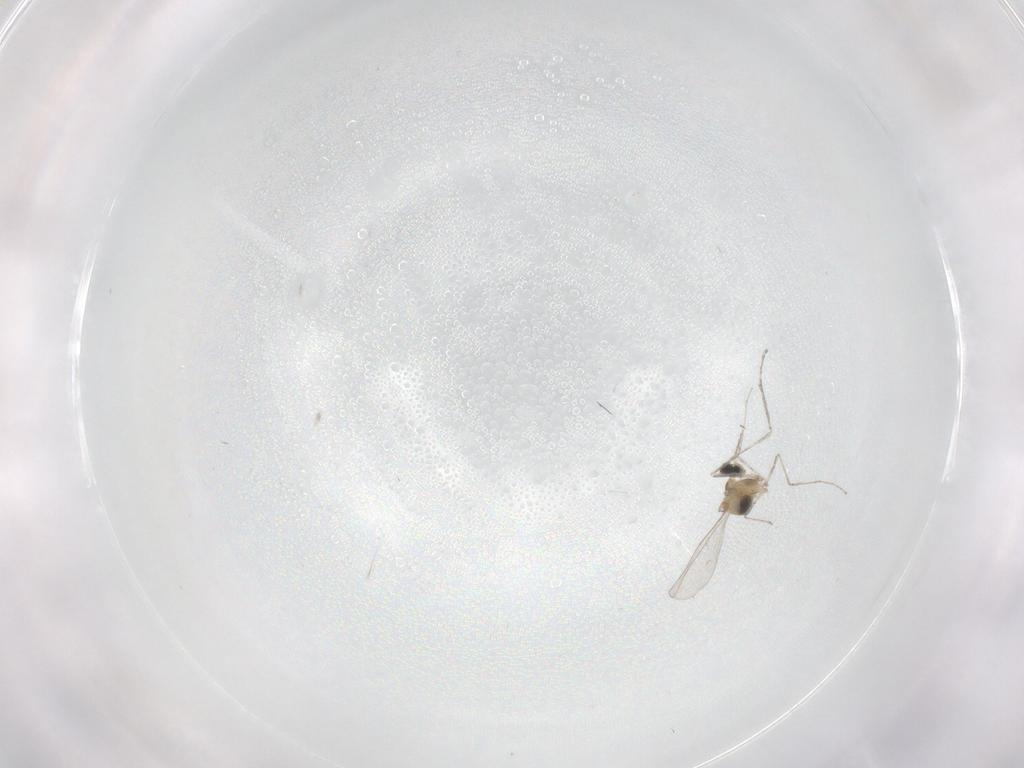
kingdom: Animalia
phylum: Arthropoda
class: Insecta
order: Diptera
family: Cecidomyiidae
